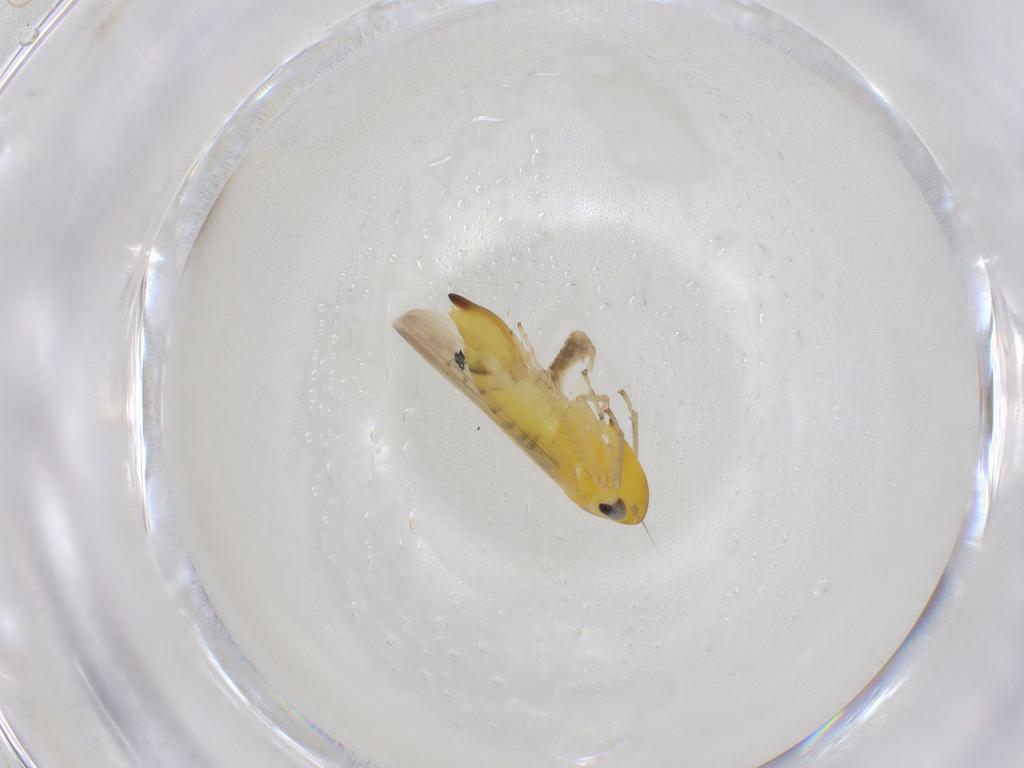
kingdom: Animalia
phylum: Arthropoda
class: Insecta
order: Hemiptera
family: Cicadellidae
